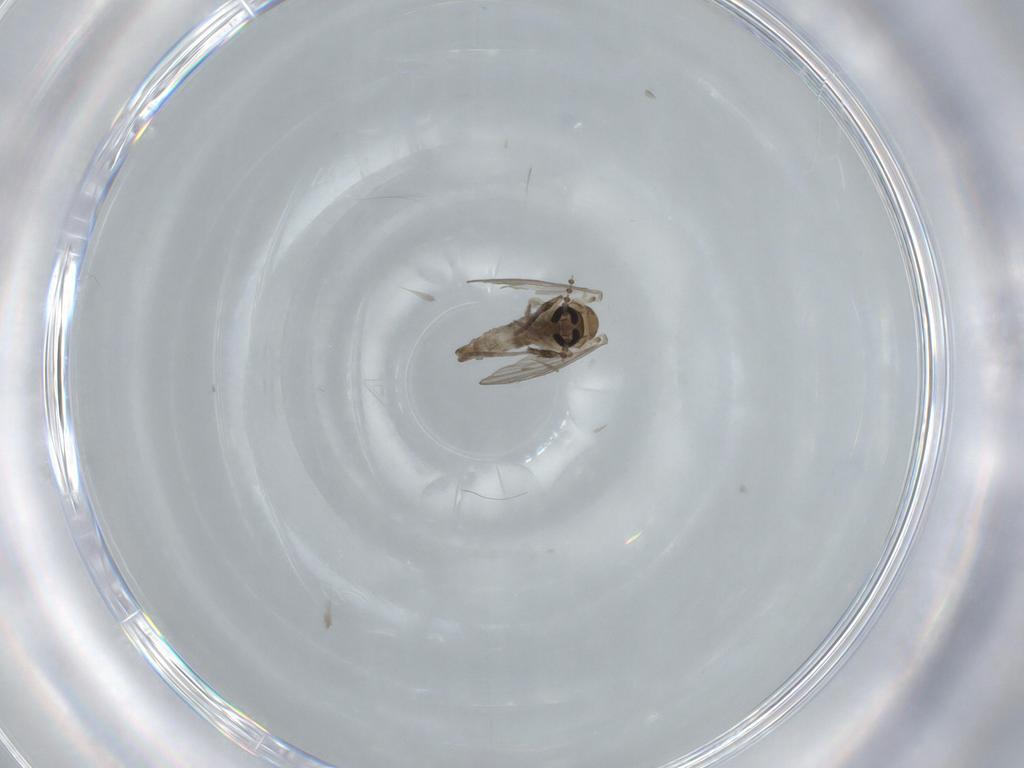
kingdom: Animalia
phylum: Arthropoda
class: Insecta
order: Diptera
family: Psychodidae
